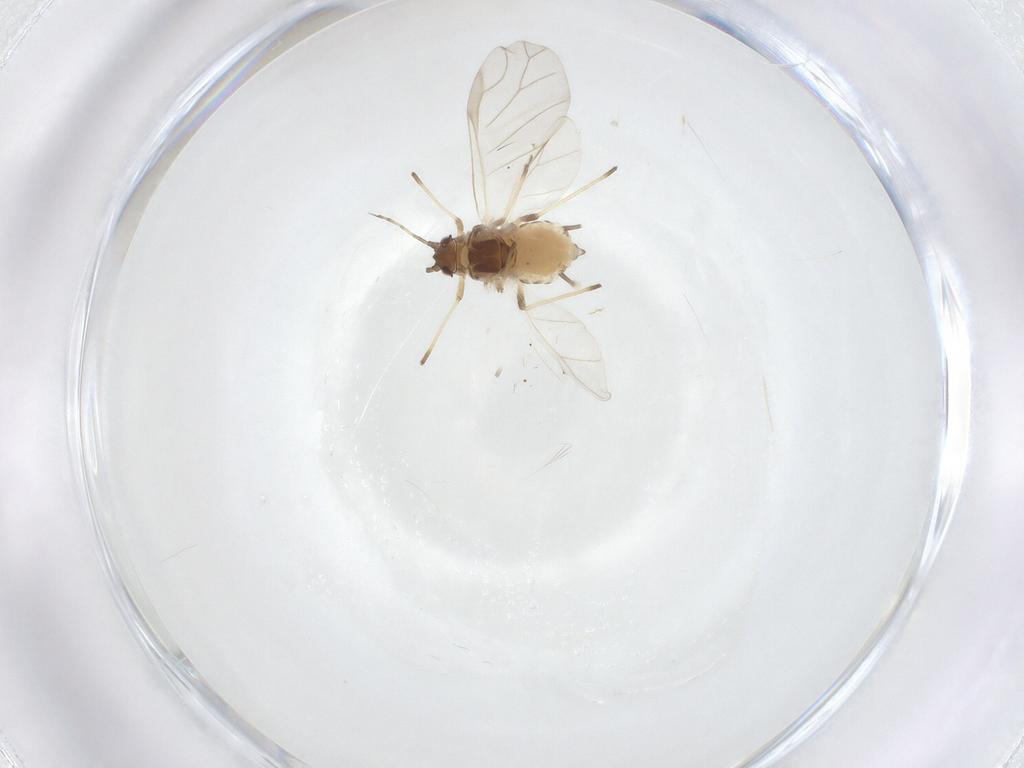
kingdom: Animalia
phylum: Arthropoda
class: Insecta
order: Hemiptera
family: Aphididae
